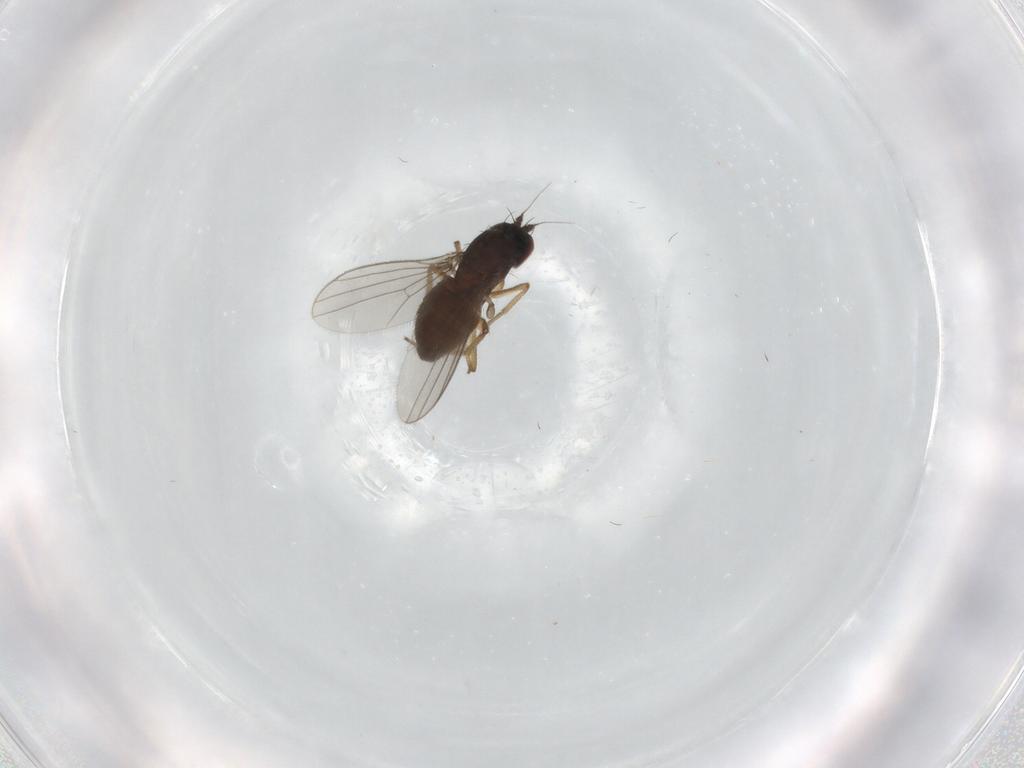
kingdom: Animalia
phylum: Arthropoda
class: Insecta
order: Diptera
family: Dolichopodidae
